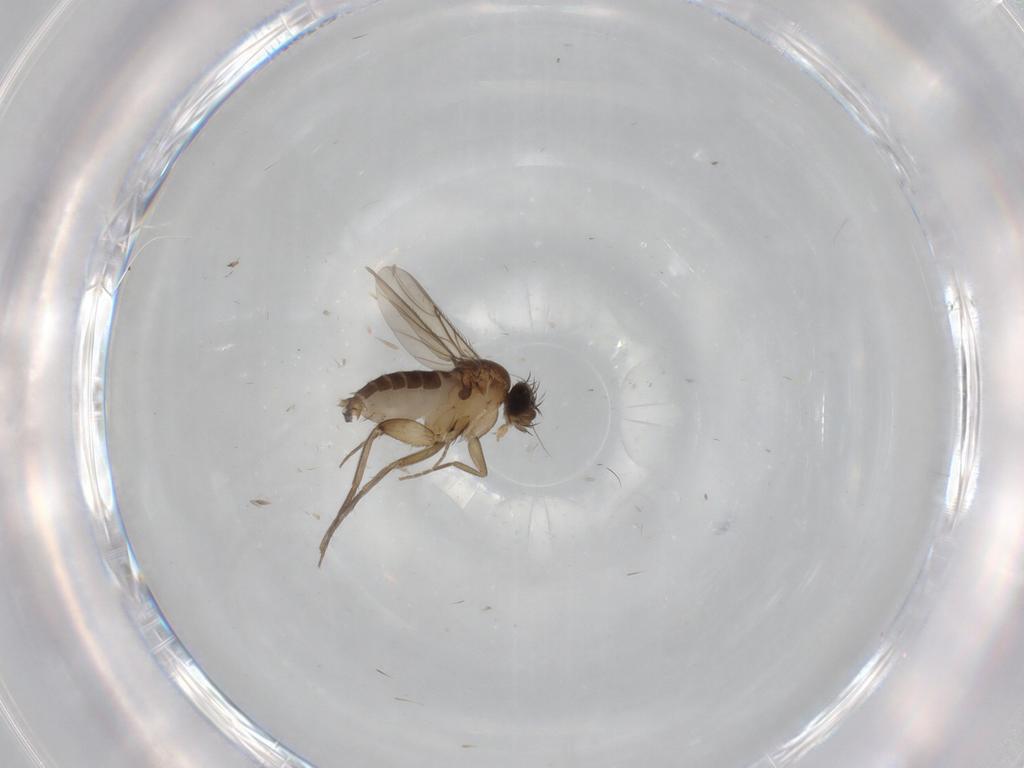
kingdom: Animalia
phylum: Arthropoda
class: Insecta
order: Diptera
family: Phoridae
